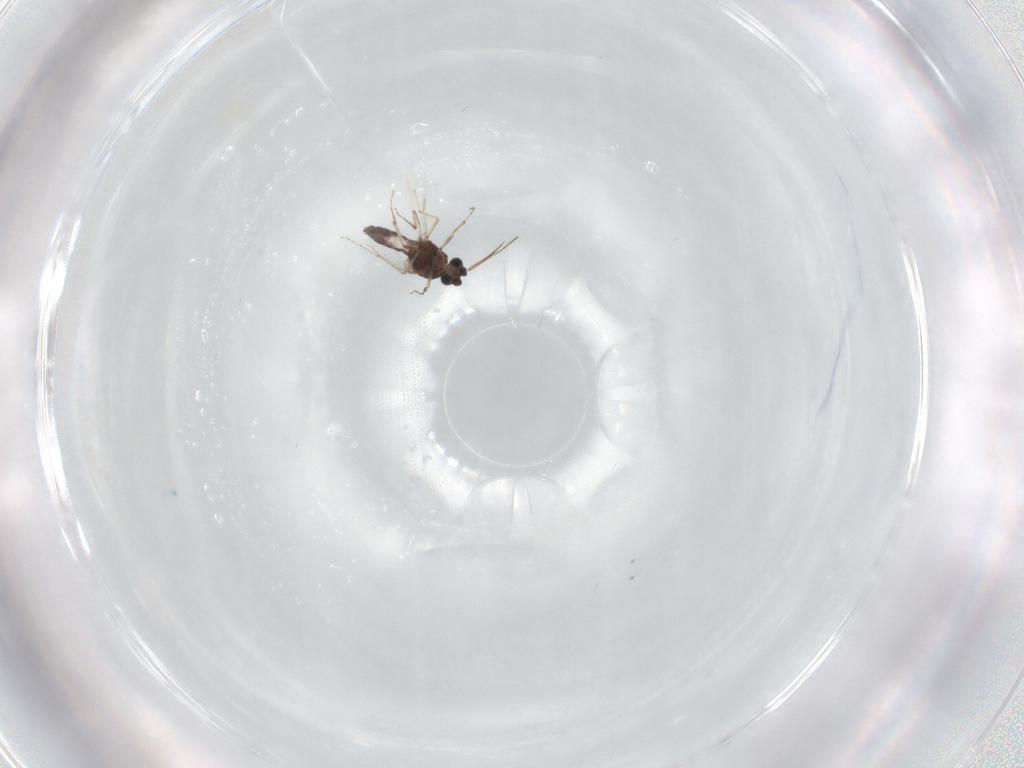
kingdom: Animalia
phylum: Arthropoda
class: Insecta
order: Diptera
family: Ceratopogonidae
